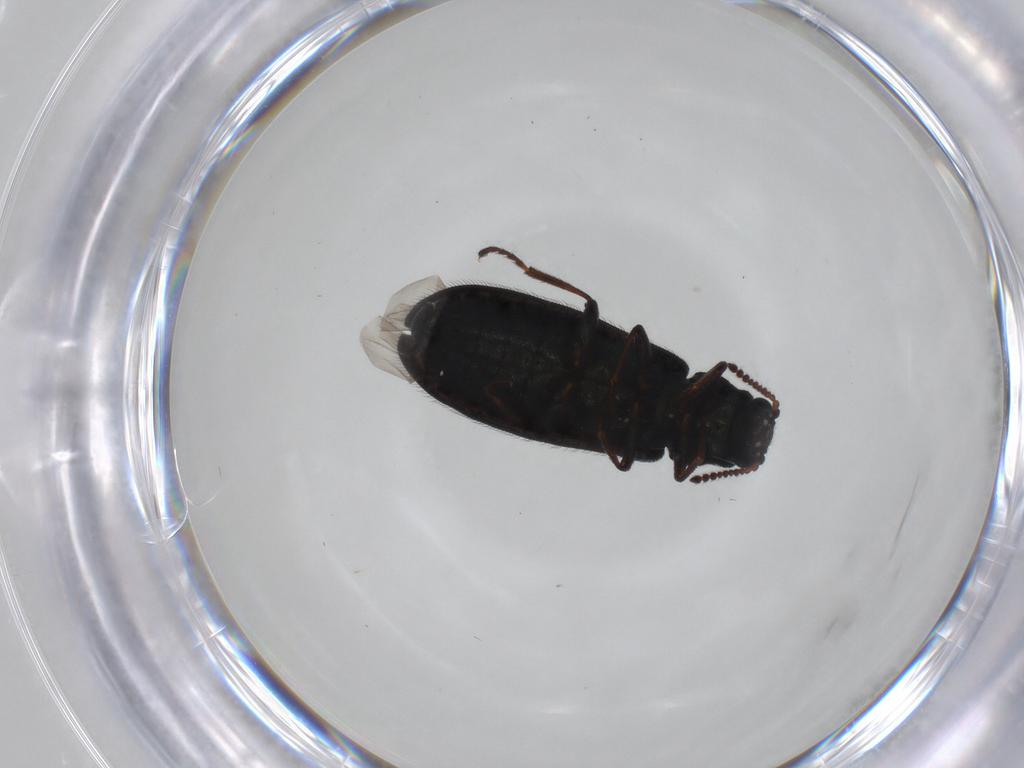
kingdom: Animalia
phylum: Arthropoda
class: Insecta
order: Coleoptera
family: Melyridae
